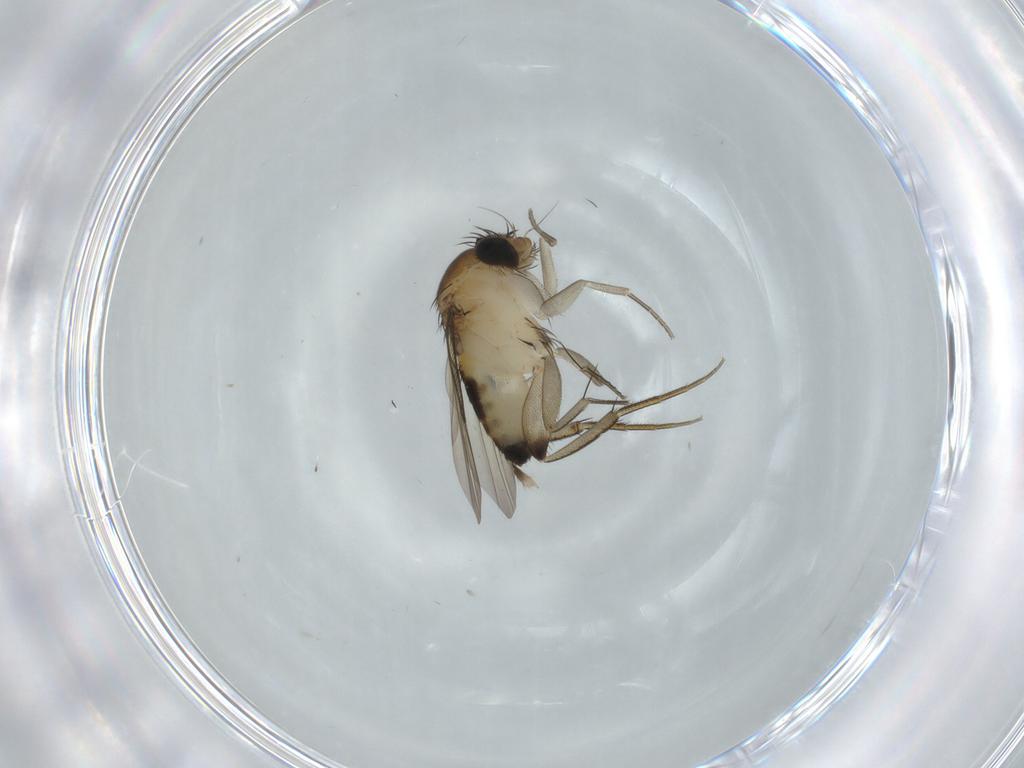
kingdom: Animalia
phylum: Arthropoda
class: Insecta
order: Diptera
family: Phoridae
